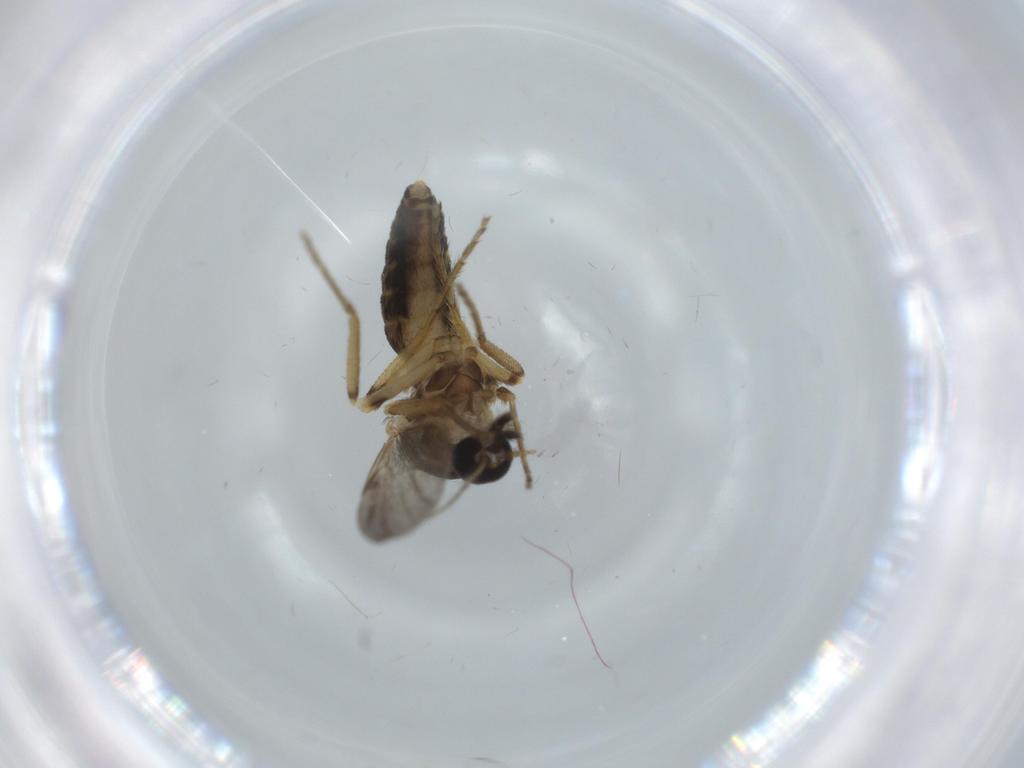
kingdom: Animalia
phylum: Arthropoda
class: Insecta
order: Diptera
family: Ceratopogonidae
